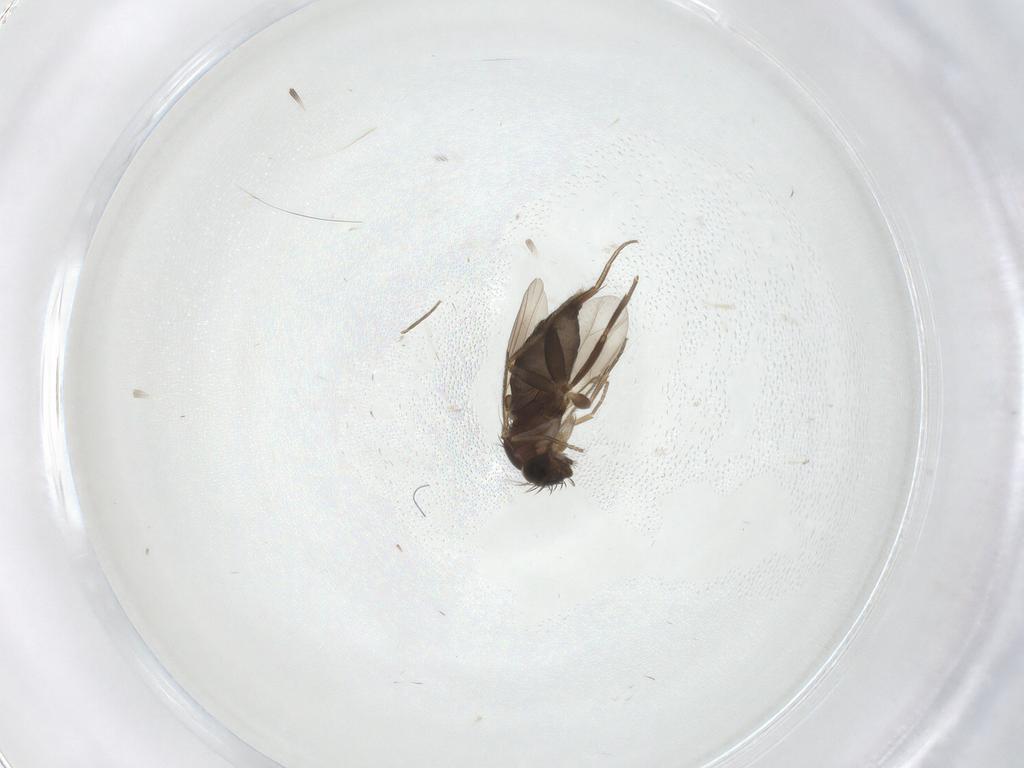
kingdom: Animalia
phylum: Arthropoda
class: Insecta
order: Diptera
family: Phoridae
